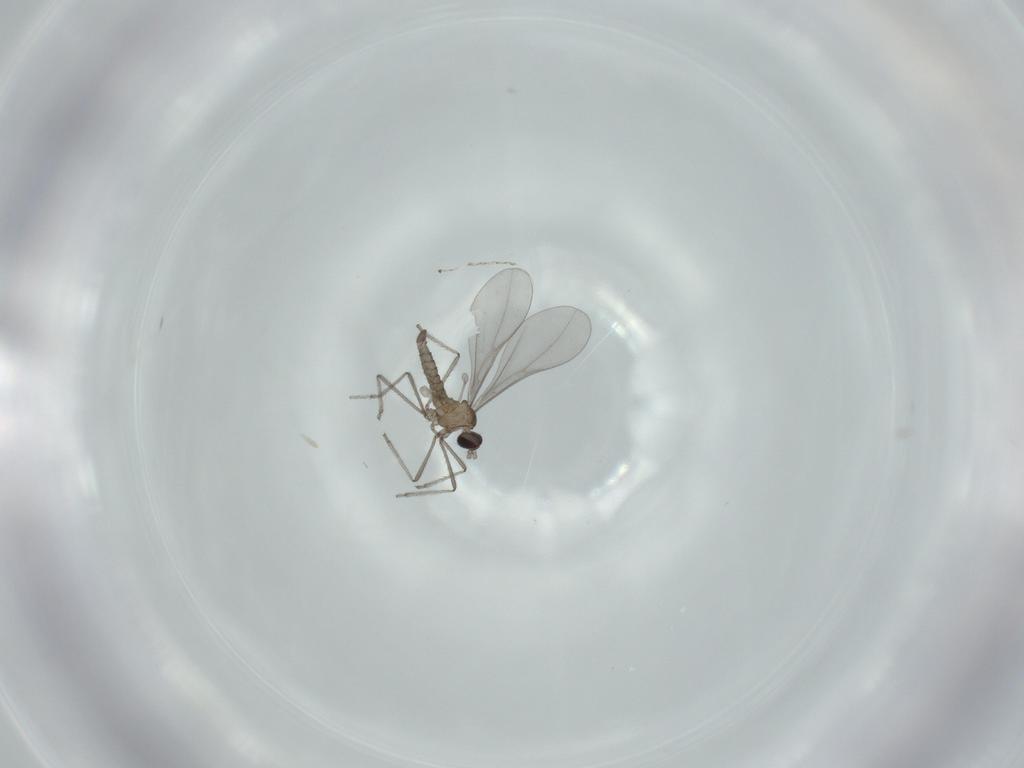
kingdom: Animalia
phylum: Arthropoda
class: Insecta
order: Diptera
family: Cecidomyiidae
